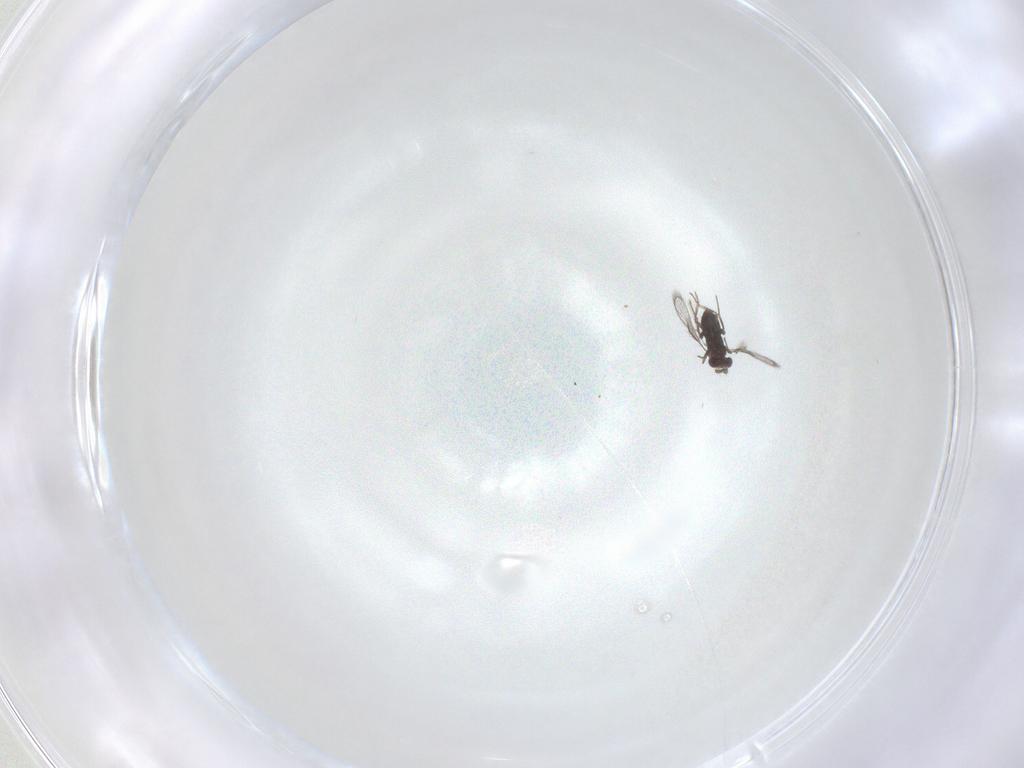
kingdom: Animalia
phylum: Arthropoda
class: Insecta
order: Hymenoptera
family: Trichogrammatidae
